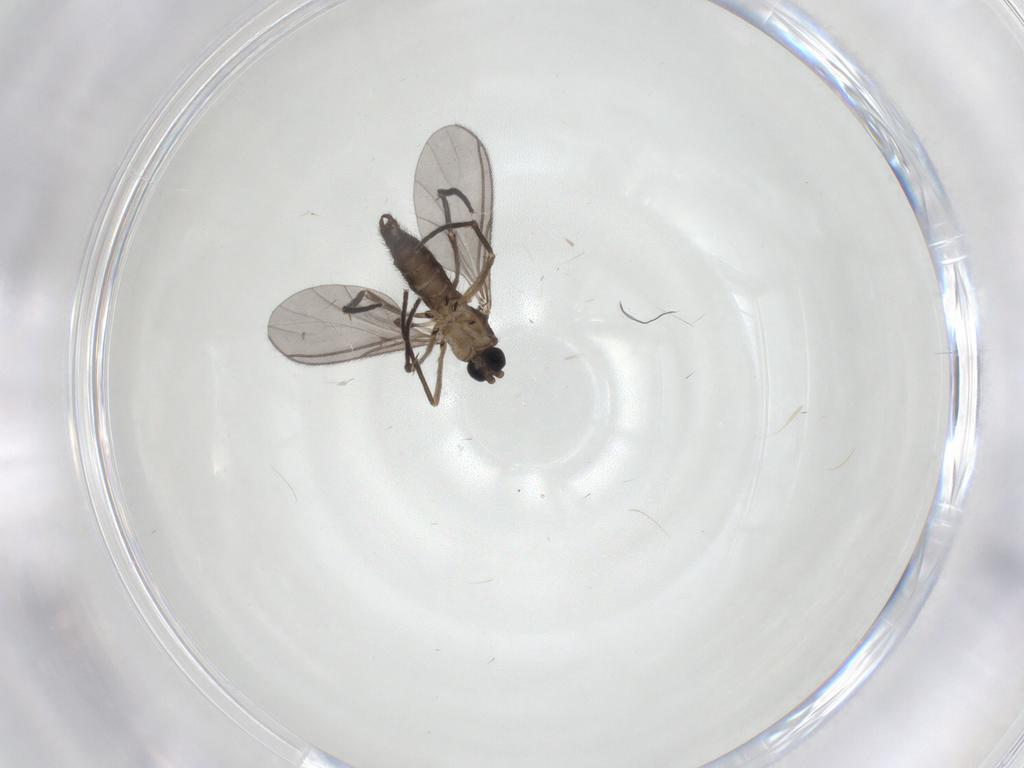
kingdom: Animalia
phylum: Arthropoda
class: Insecta
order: Diptera
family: Sciaridae
